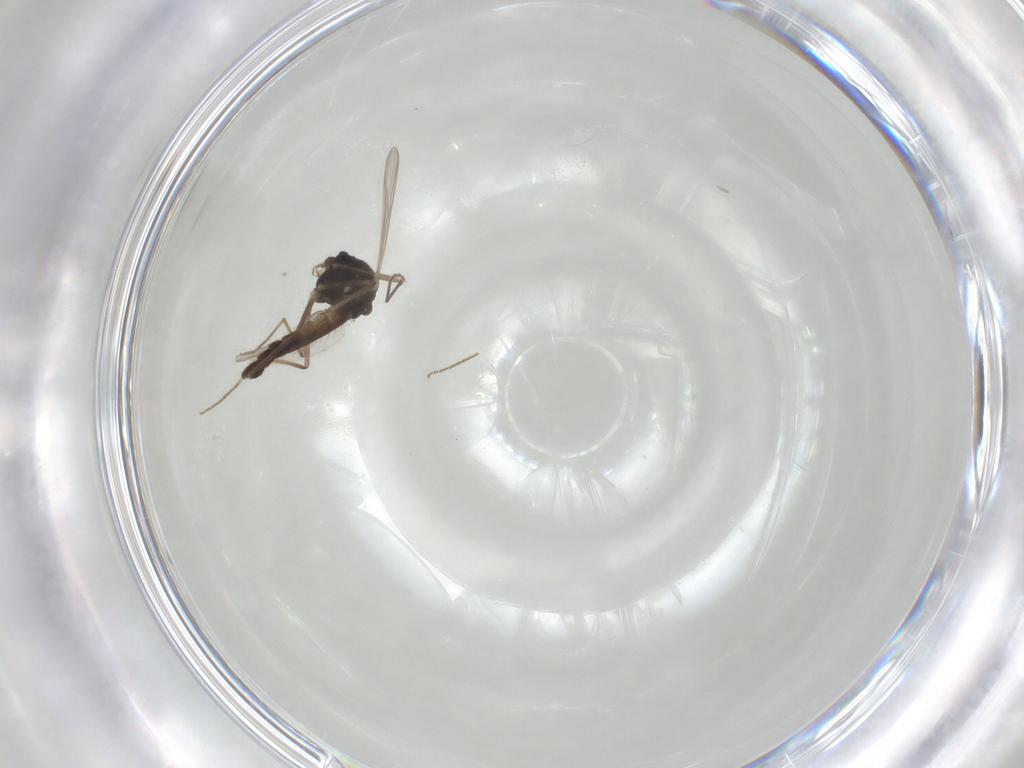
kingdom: Animalia
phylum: Arthropoda
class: Insecta
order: Diptera
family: Chironomidae
